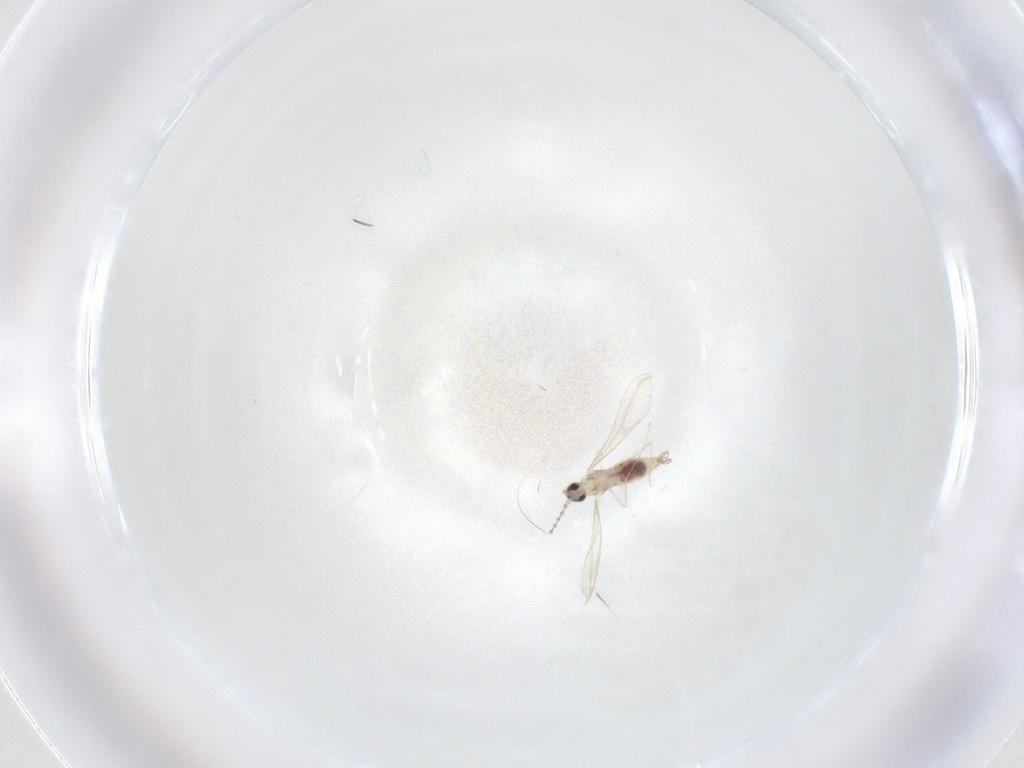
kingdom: Animalia
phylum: Arthropoda
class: Insecta
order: Diptera
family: Cecidomyiidae
